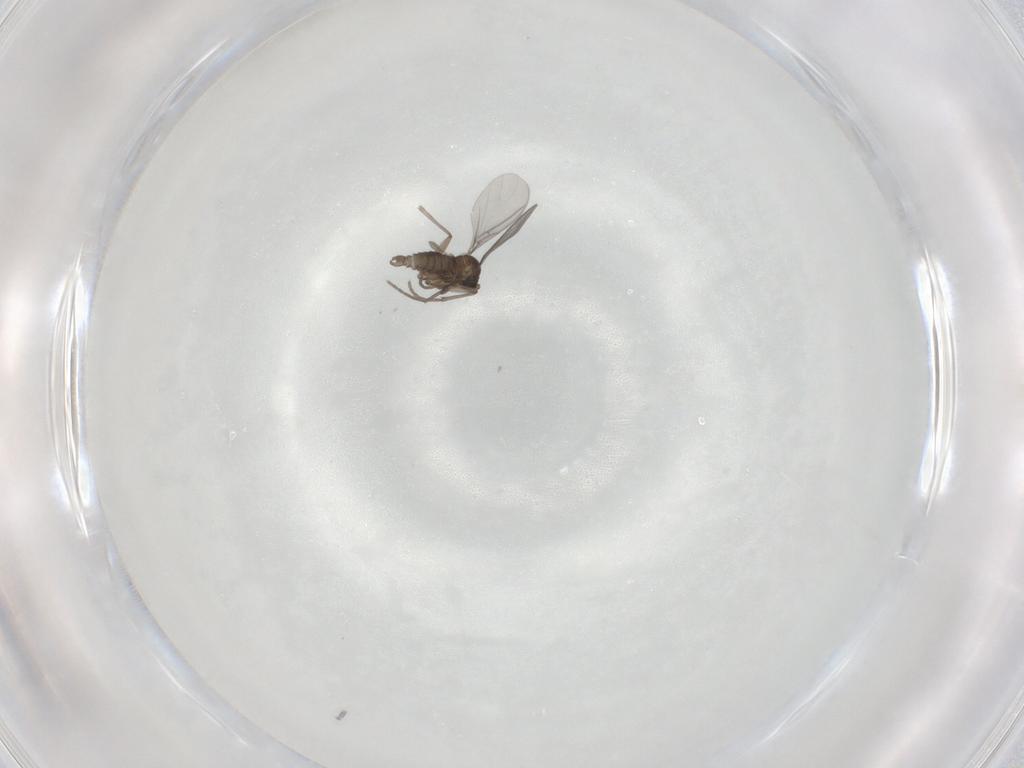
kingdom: Animalia
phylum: Arthropoda
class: Insecta
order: Diptera
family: Sciaridae
